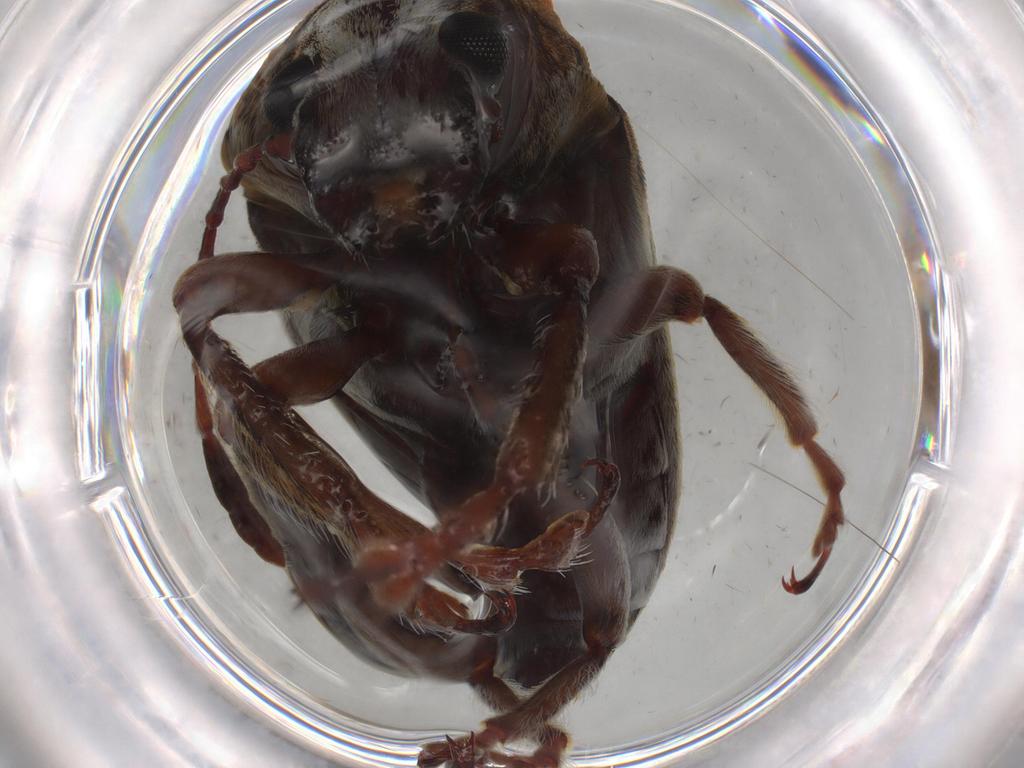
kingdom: Animalia
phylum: Arthropoda
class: Insecta
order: Coleoptera
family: Anthribidae
